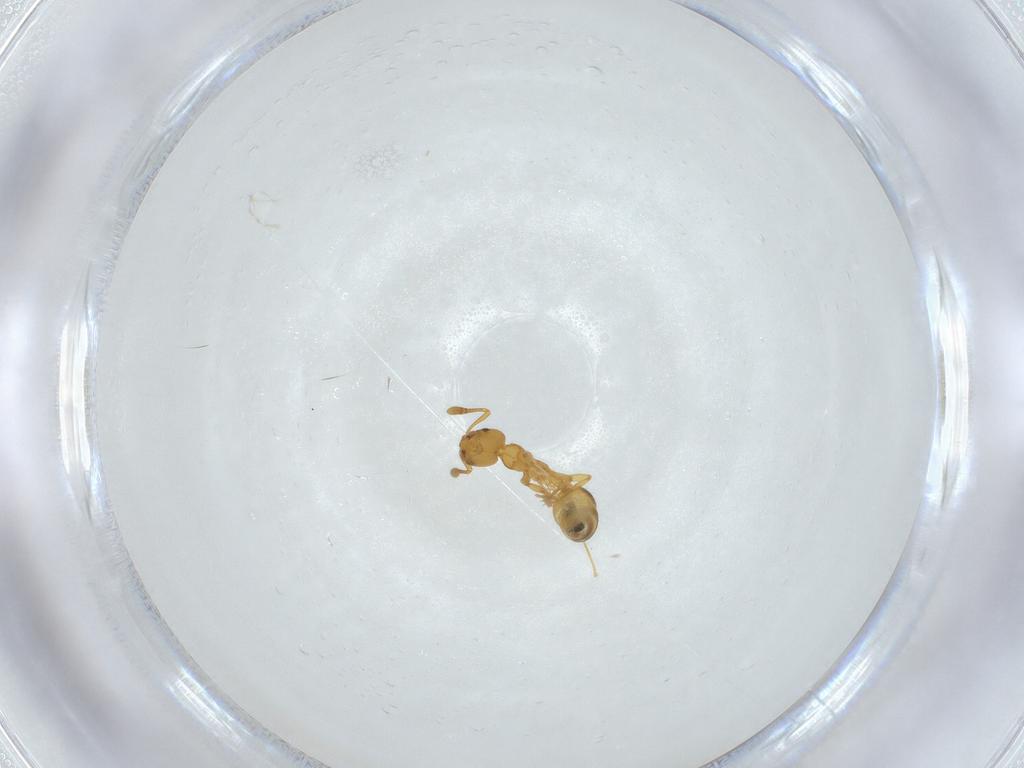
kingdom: Animalia
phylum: Arthropoda
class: Insecta
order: Hymenoptera
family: Formicidae
